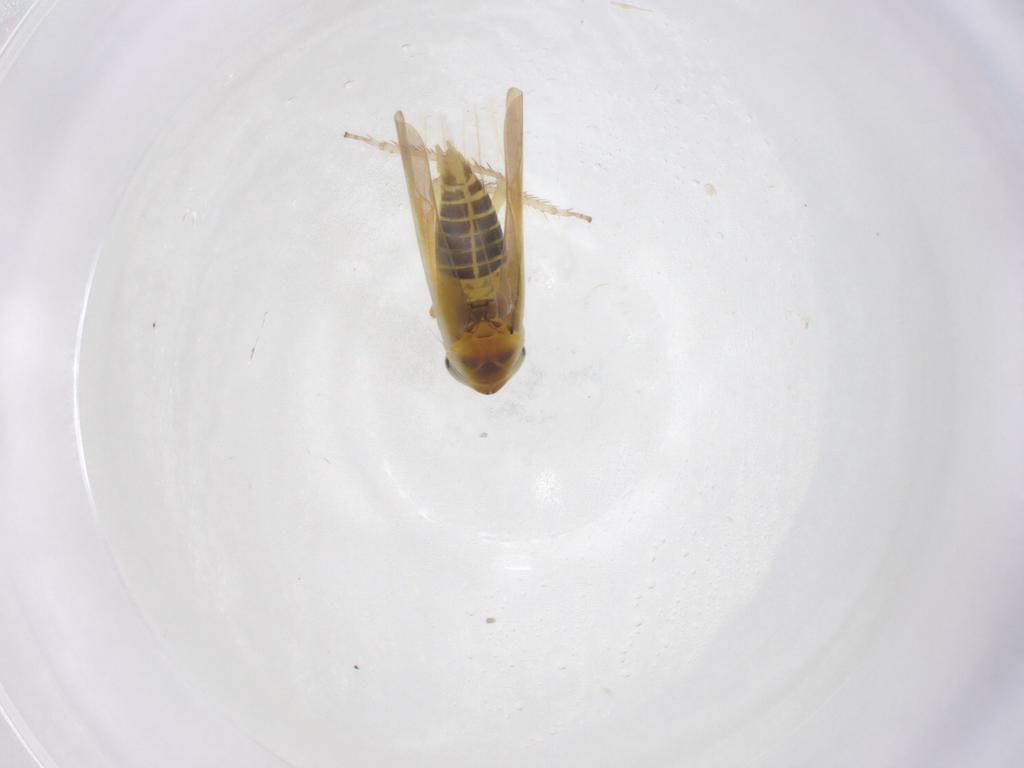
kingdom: Animalia
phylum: Arthropoda
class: Insecta
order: Hemiptera
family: Cicadellidae
